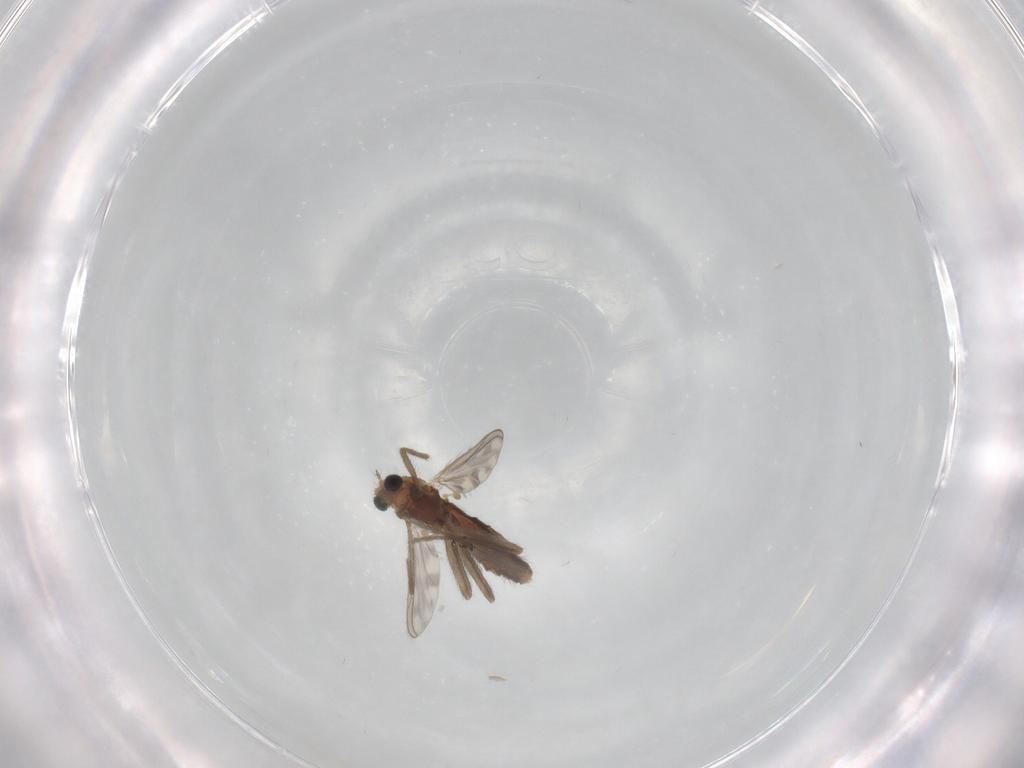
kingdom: Animalia
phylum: Arthropoda
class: Insecta
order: Diptera
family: Chironomidae
